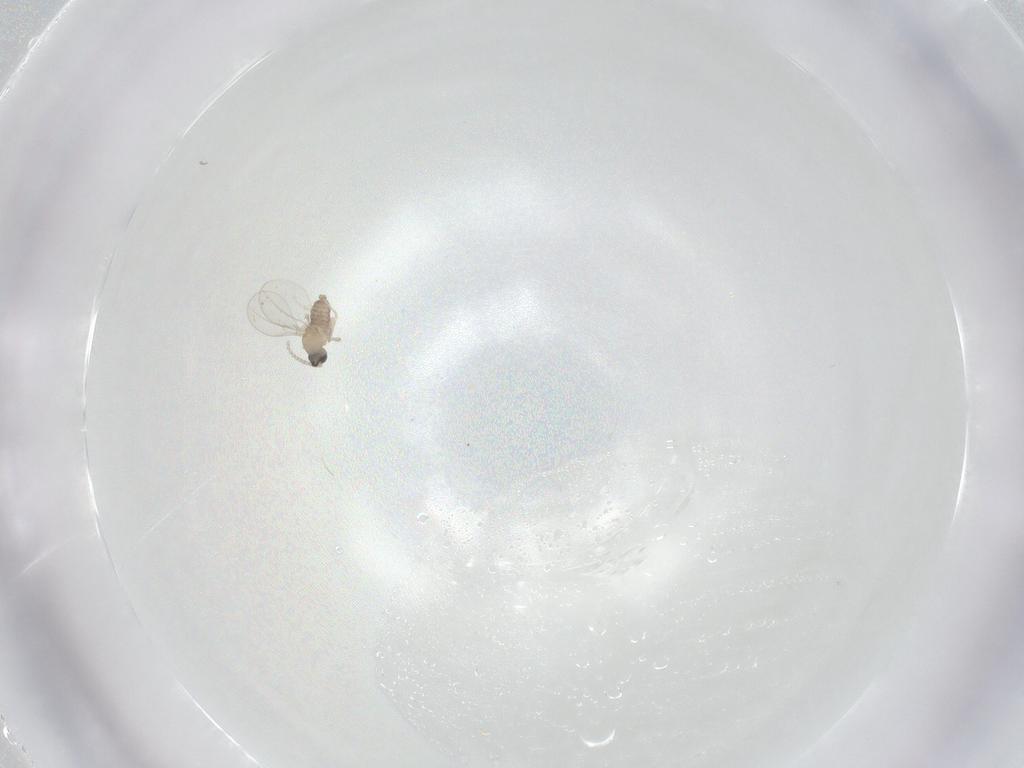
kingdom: Animalia
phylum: Arthropoda
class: Insecta
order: Diptera
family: Cecidomyiidae
